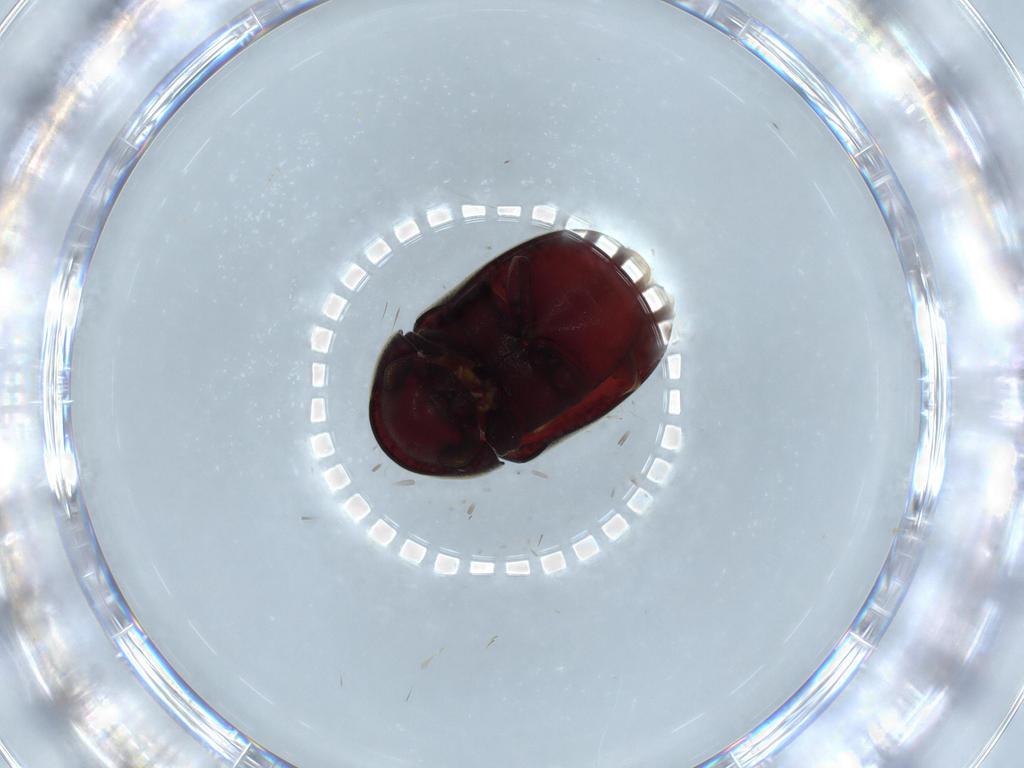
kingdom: Animalia
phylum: Arthropoda
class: Insecta
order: Coleoptera
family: Ptinidae
